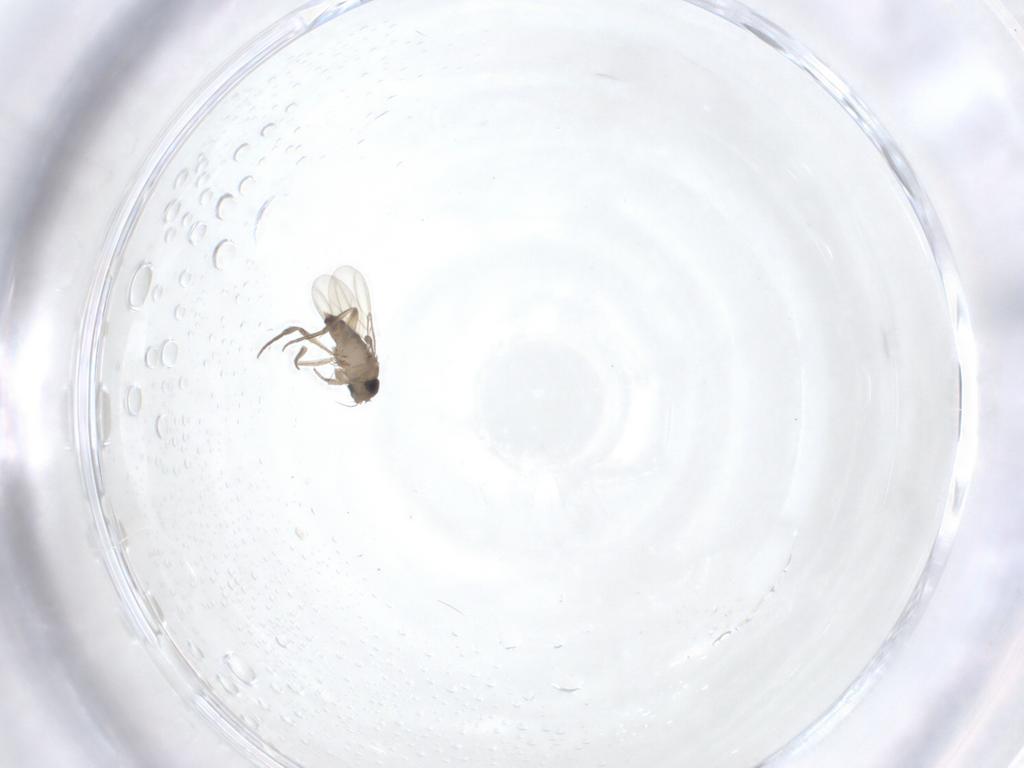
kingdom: Animalia
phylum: Arthropoda
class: Insecta
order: Diptera
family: Phoridae
